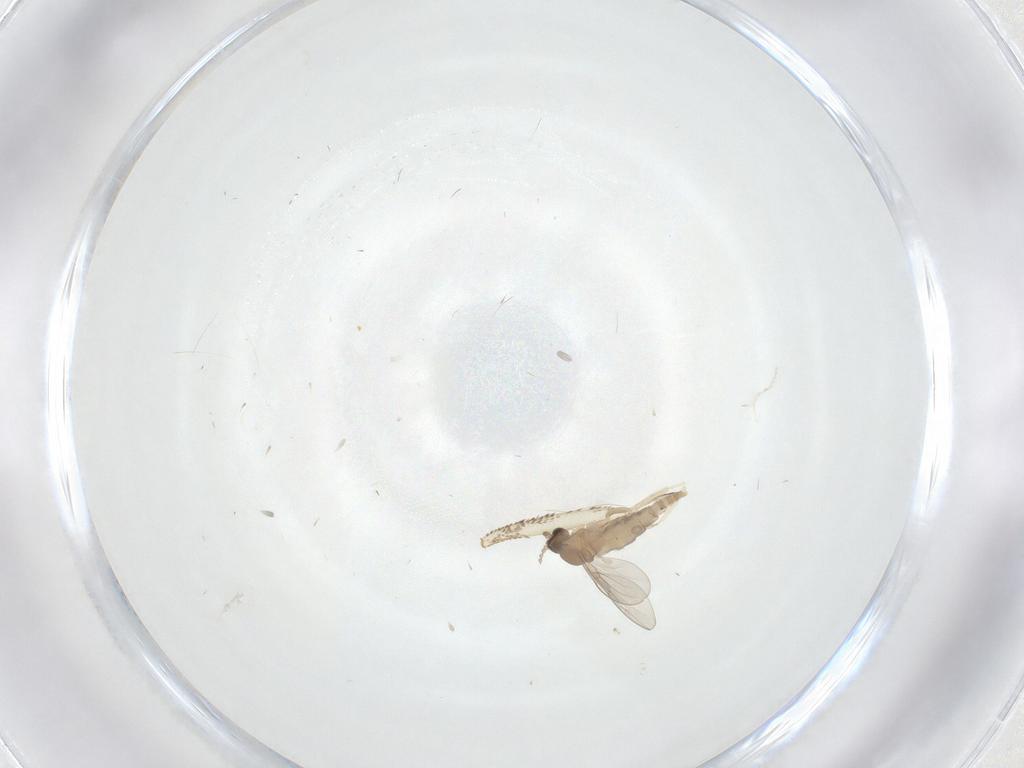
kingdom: Animalia
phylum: Arthropoda
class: Insecta
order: Diptera
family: Cecidomyiidae
